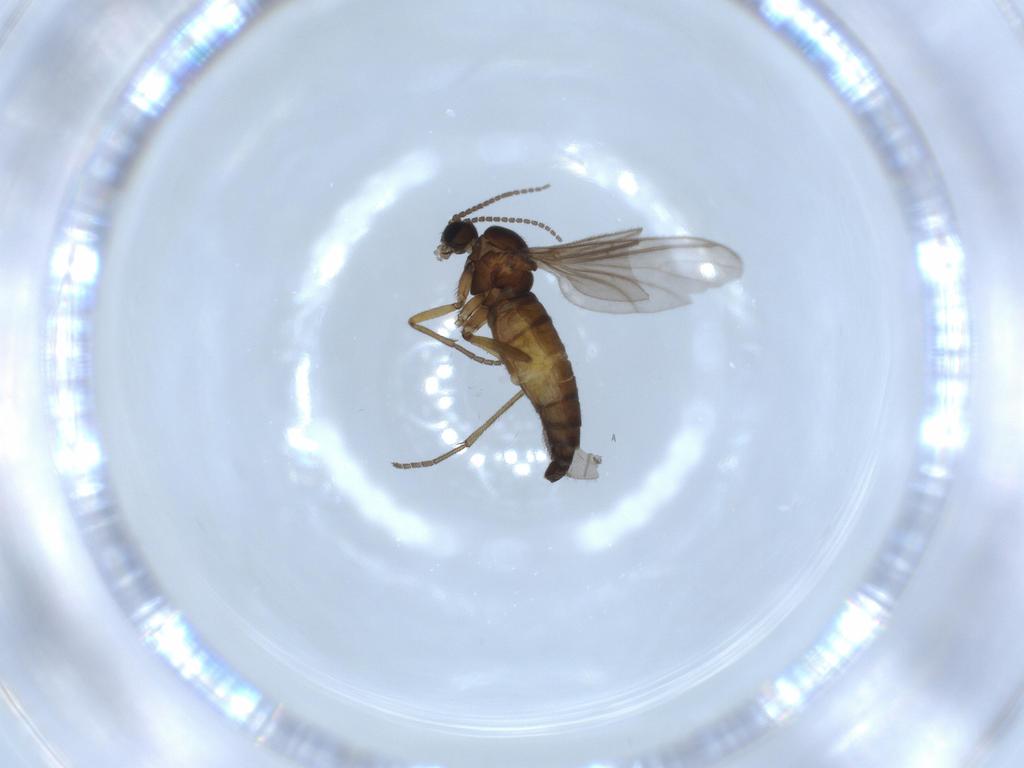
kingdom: Animalia
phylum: Arthropoda
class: Insecta
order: Diptera
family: Sciaridae
